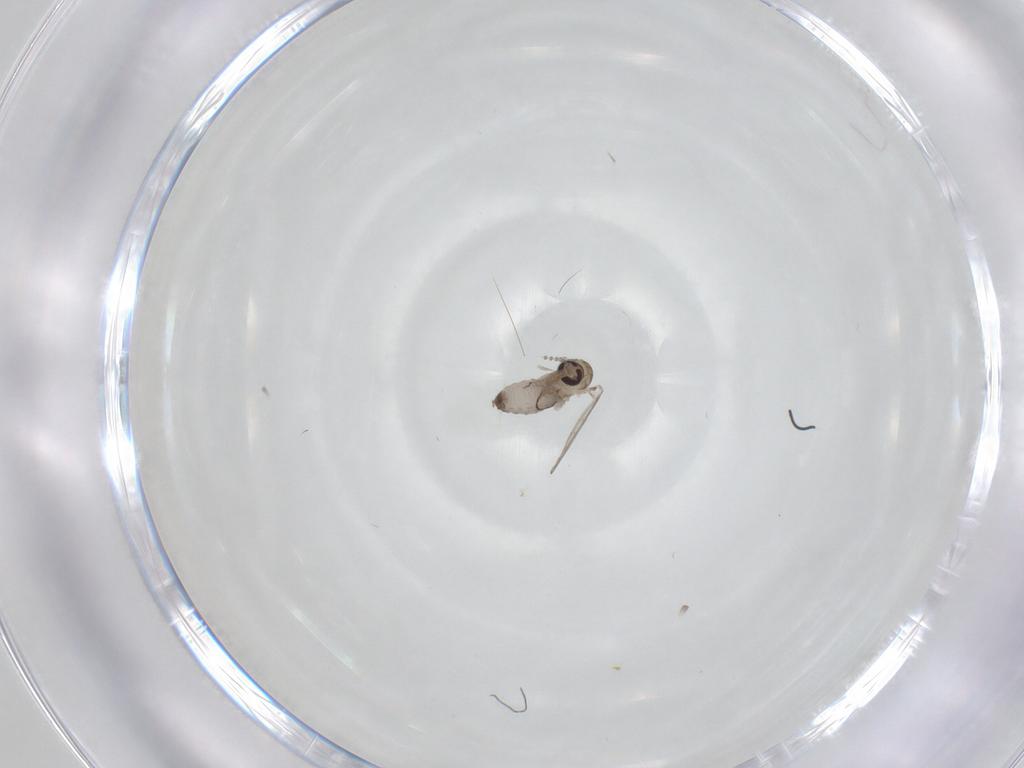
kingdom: Animalia
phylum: Arthropoda
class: Insecta
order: Diptera
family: Psychodidae
